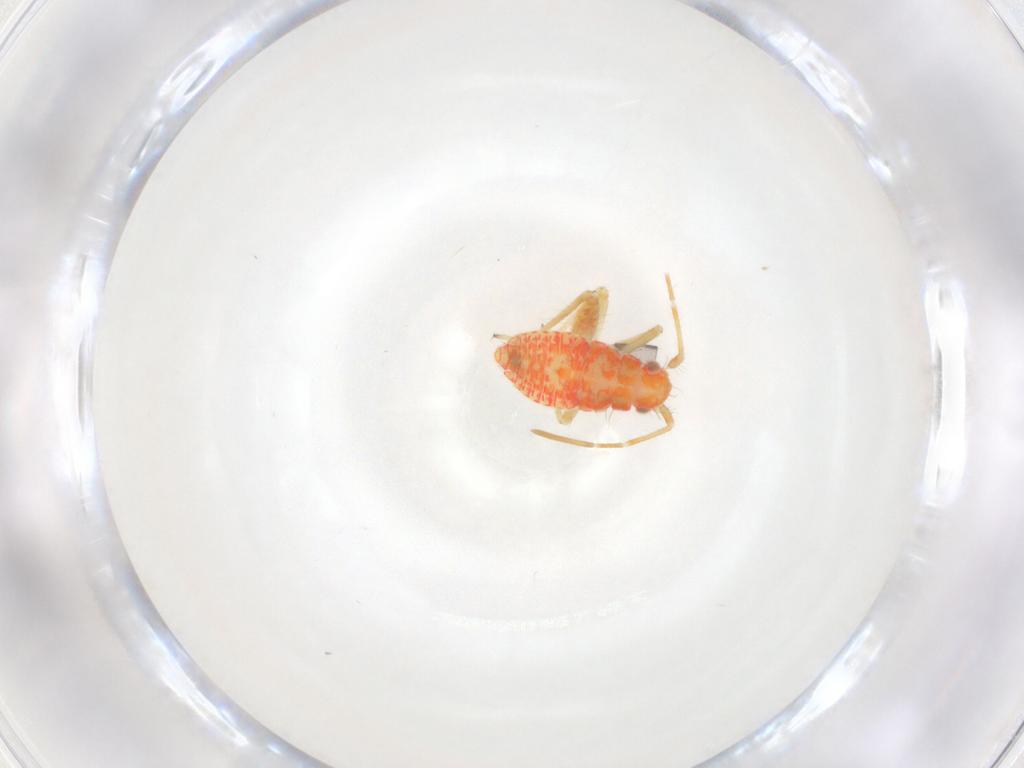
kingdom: Animalia
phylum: Arthropoda
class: Insecta
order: Hemiptera
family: Miridae
